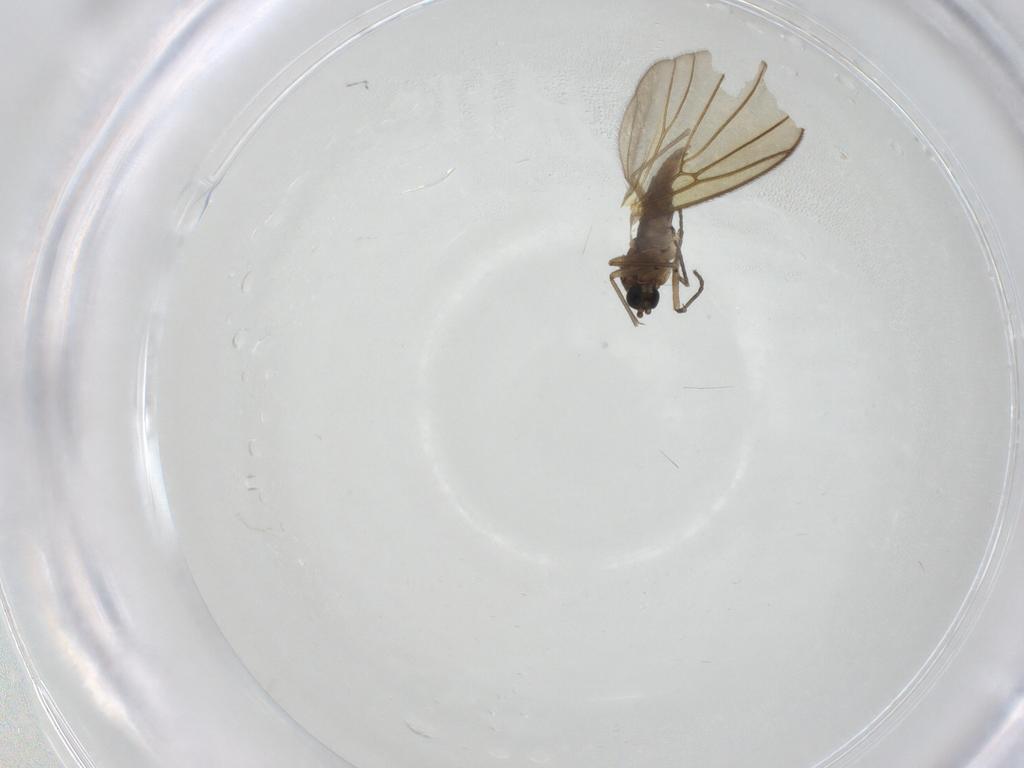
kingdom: Animalia
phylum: Arthropoda
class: Insecta
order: Diptera
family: Sciaridae
